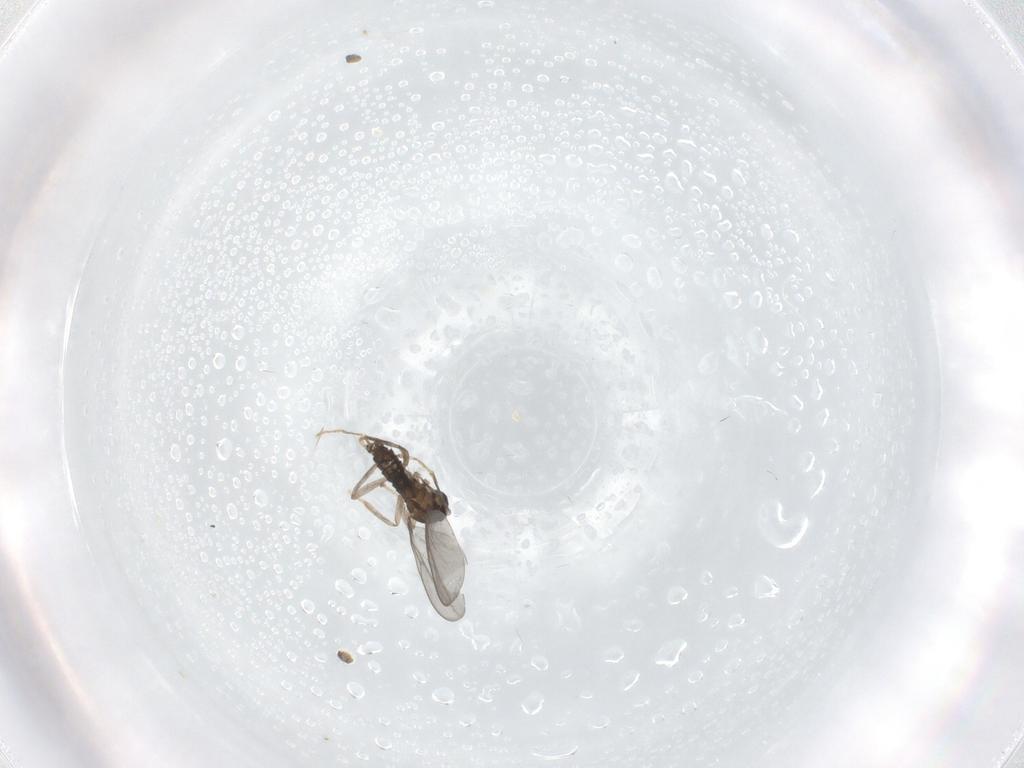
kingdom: Animalia
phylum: Arthropoda
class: Insecta
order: Diptera
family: Cecidomyiidae
